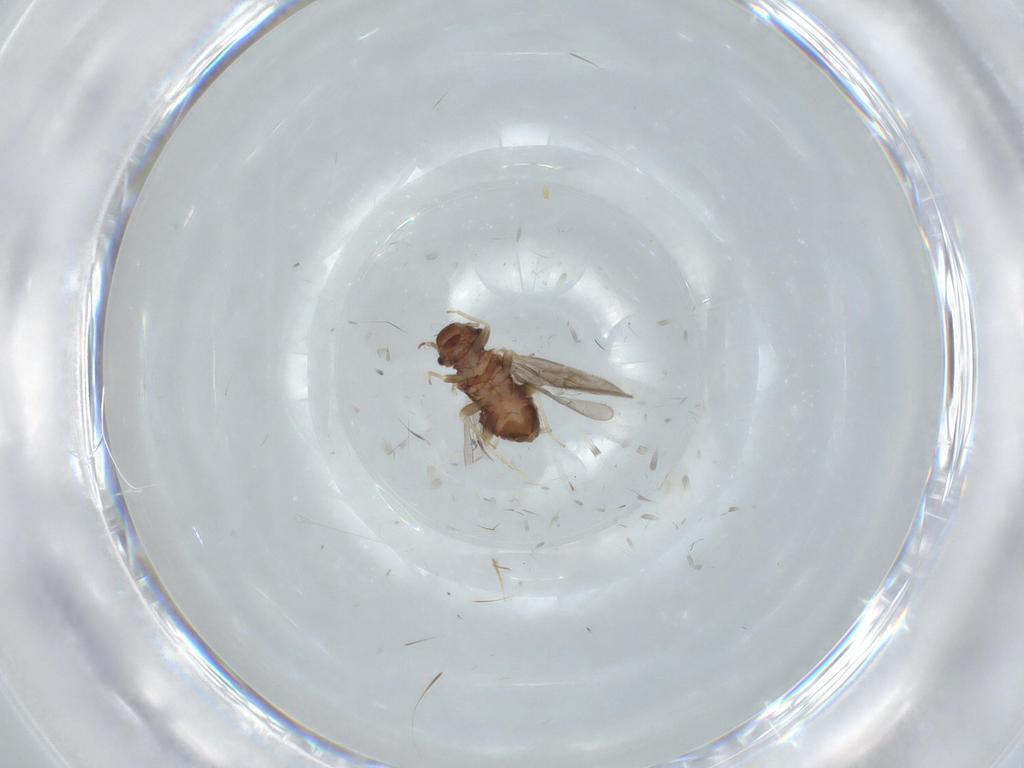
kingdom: Animalia
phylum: Arthropoda
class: Insecta
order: Psocodea
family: Archipsocidae
